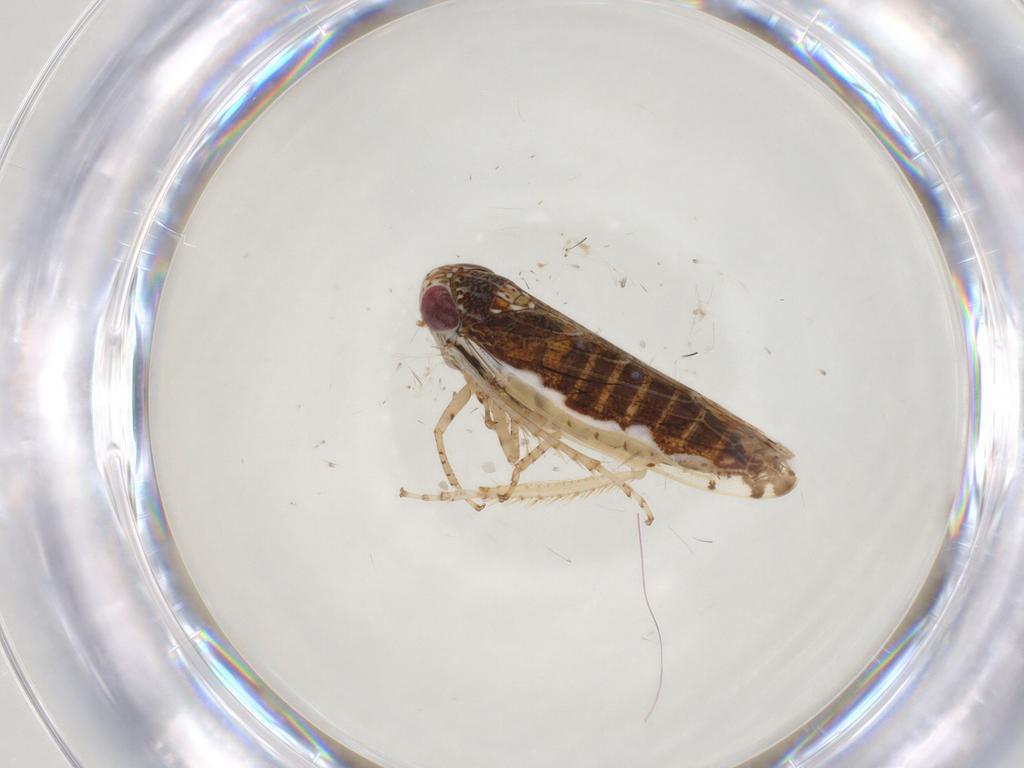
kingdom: Animalia
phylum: Arthropoda
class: Insecta
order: Hemiptera
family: Cicadellidae
